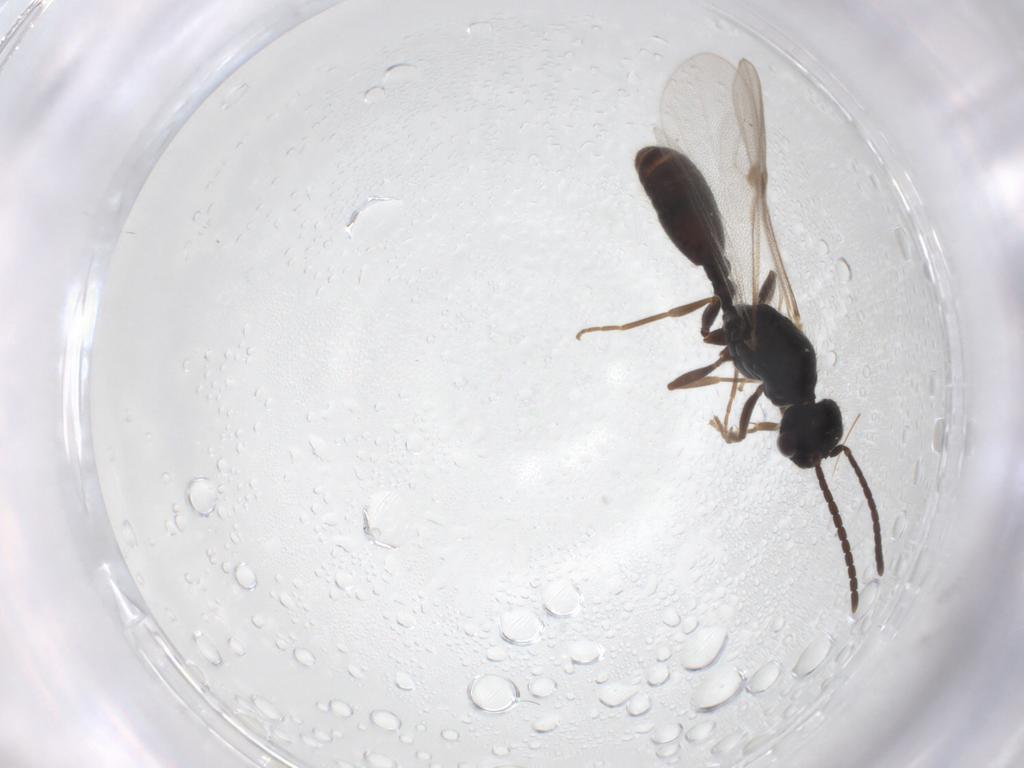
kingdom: Animalia
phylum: Arthropoda
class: Insecta
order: Hymenoptera
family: Formicidae
